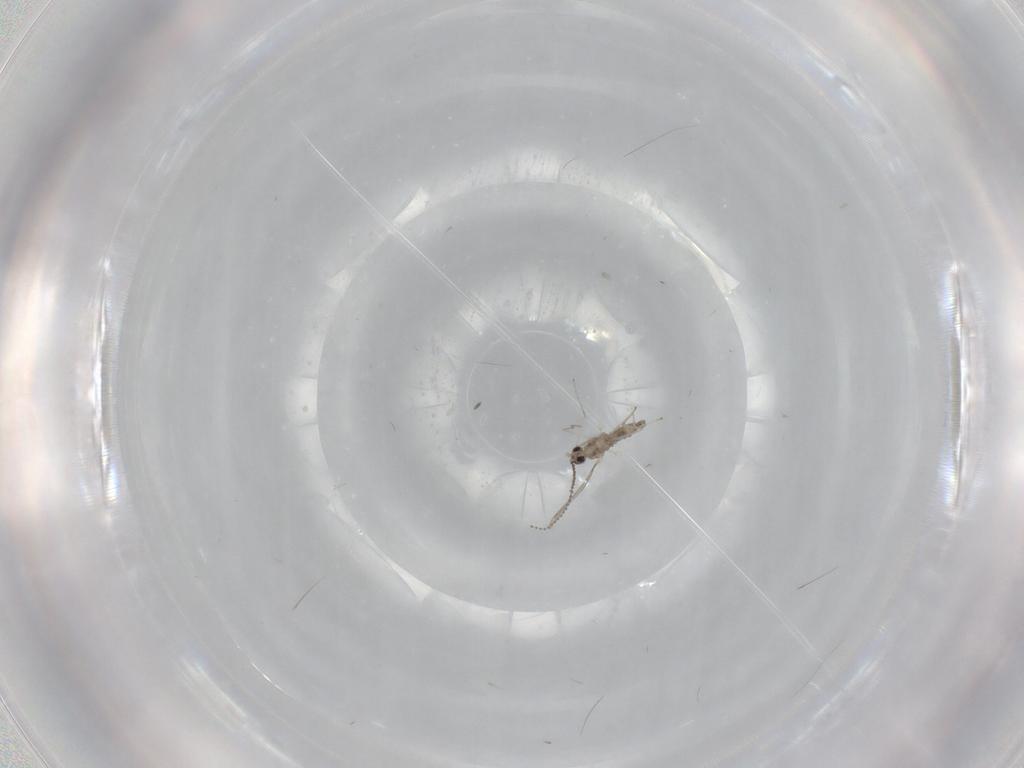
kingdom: Animalia
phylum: Arthropoda
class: Insecta
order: Diptera
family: Cecidomyiidae
